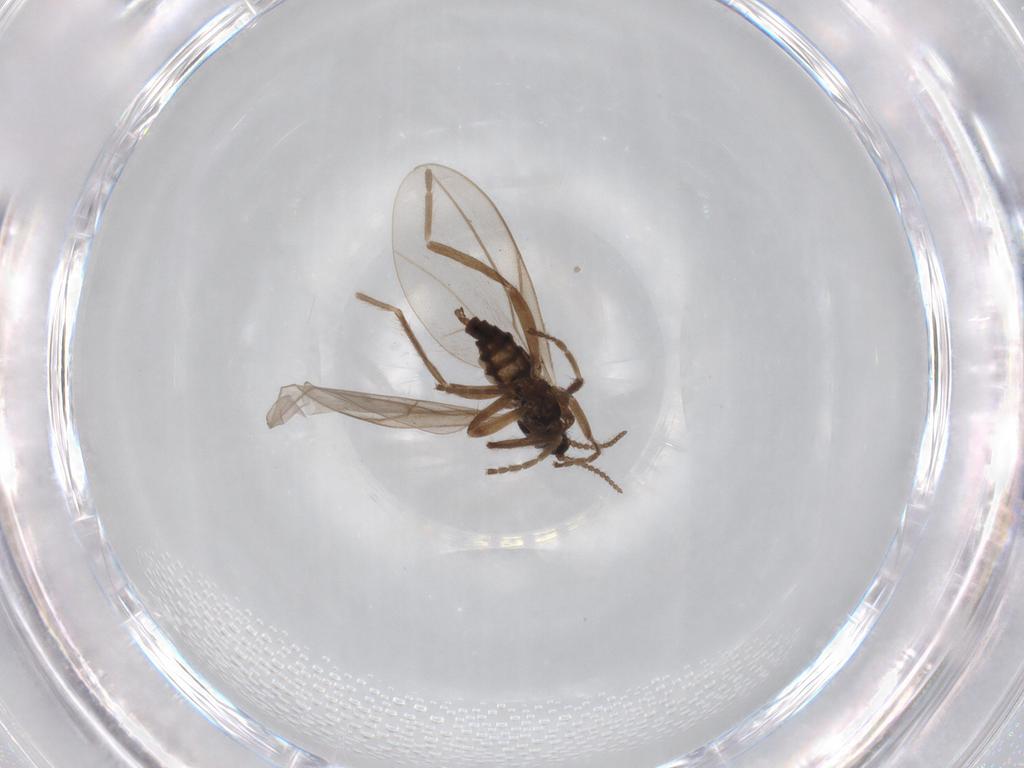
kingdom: Animalia
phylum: Arthropoda
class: Insecta
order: Diptera
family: Cecidomyiidae
